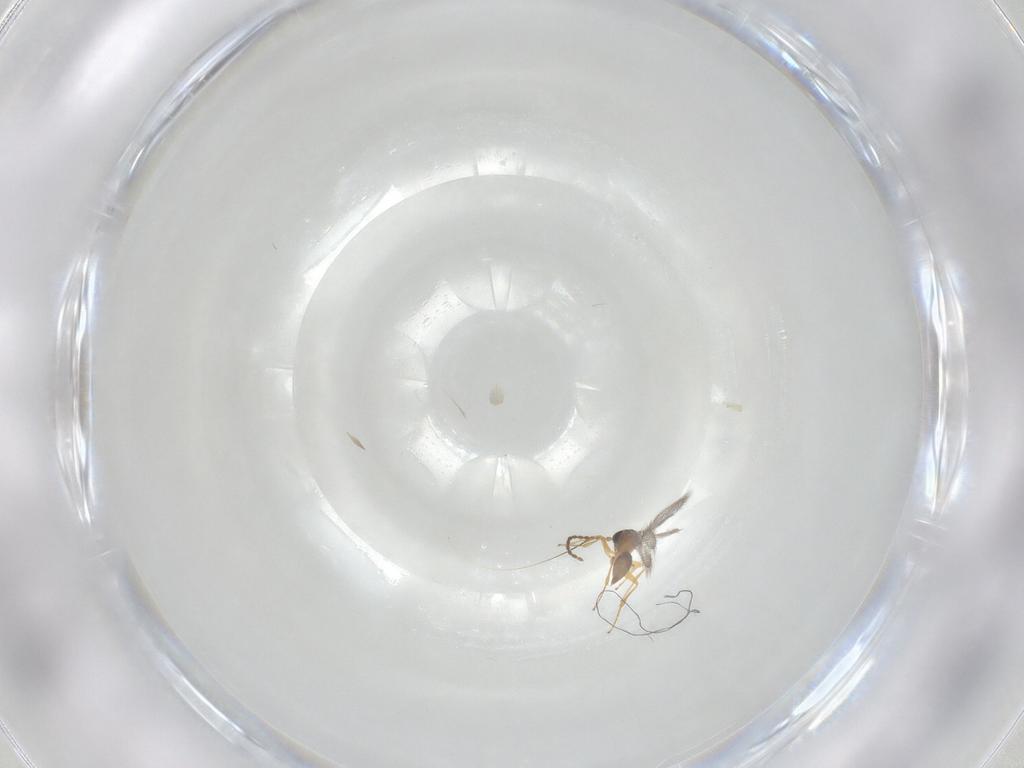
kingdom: Animalia
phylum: Arthropoda
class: Insecta
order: Hymenoptera
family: Figitidae
